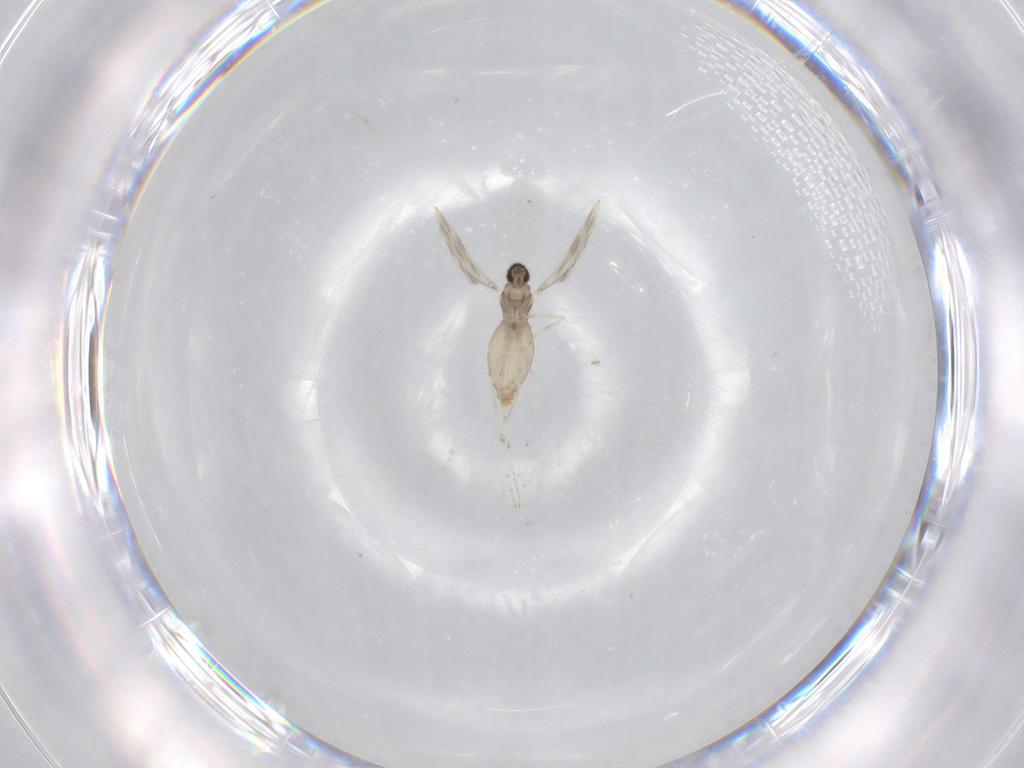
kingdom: Animalia
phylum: Arthropoda
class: Insecta
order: Diptera
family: Cecidomyiidae
